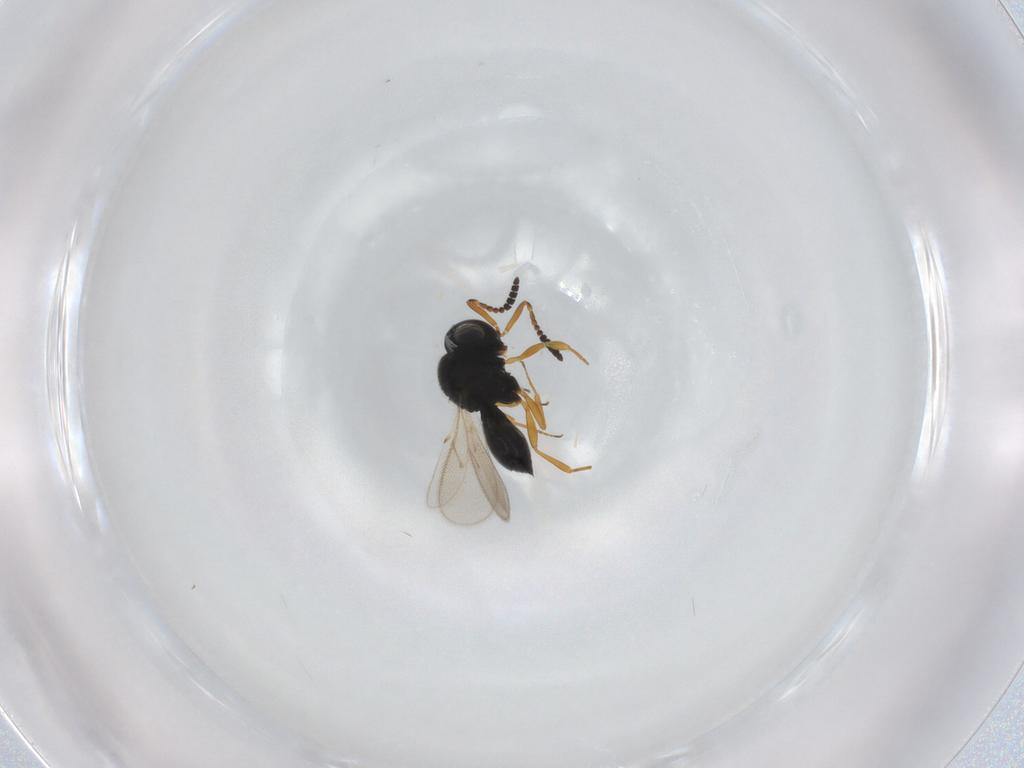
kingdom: Animalia
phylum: Arthropoda
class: Insecta
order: Hymenoptera
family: Scelionidae
